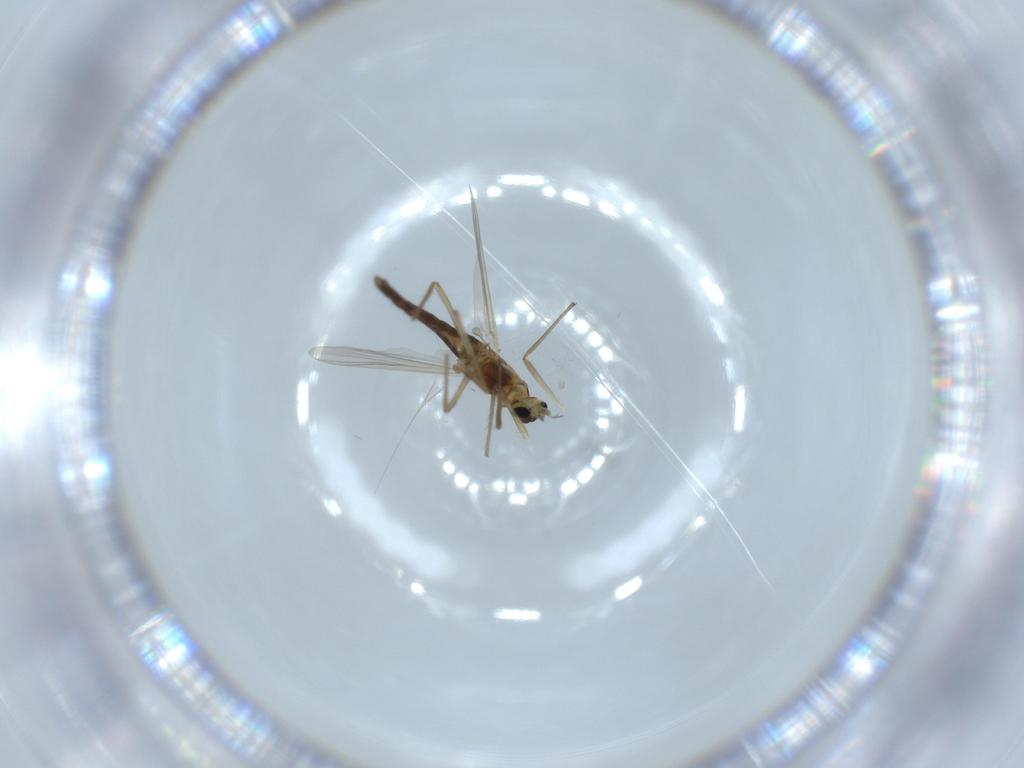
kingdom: Animalia
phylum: Arthropoda
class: Insecta
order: Diptera
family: Chironomidae
